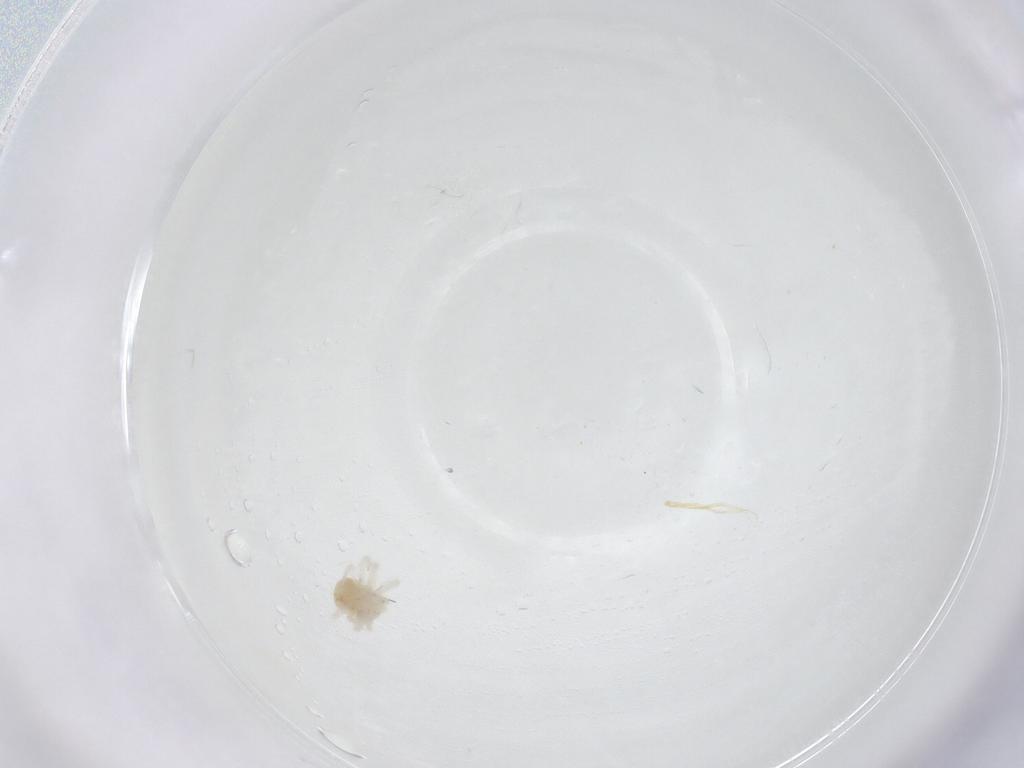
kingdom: Animalia
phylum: Arthropoda
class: Arachnida
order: Trombidiformes
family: Anystidae
